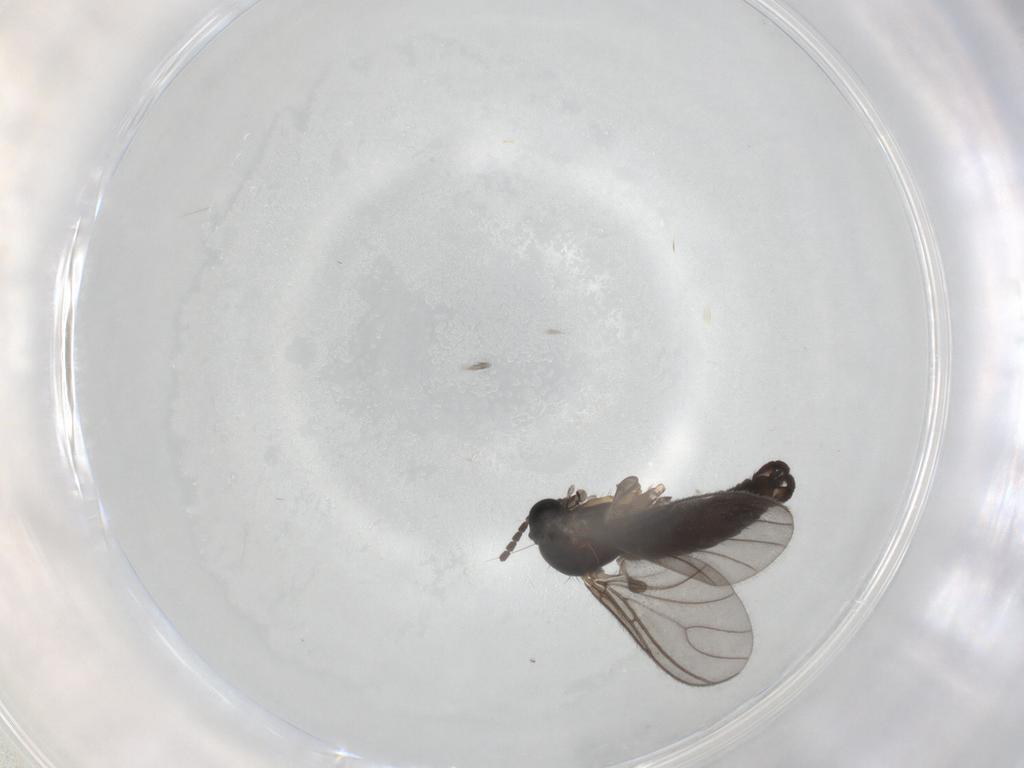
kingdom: Animalia
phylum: Arthropoda
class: Insecta
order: Diptera
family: Sciaridae
